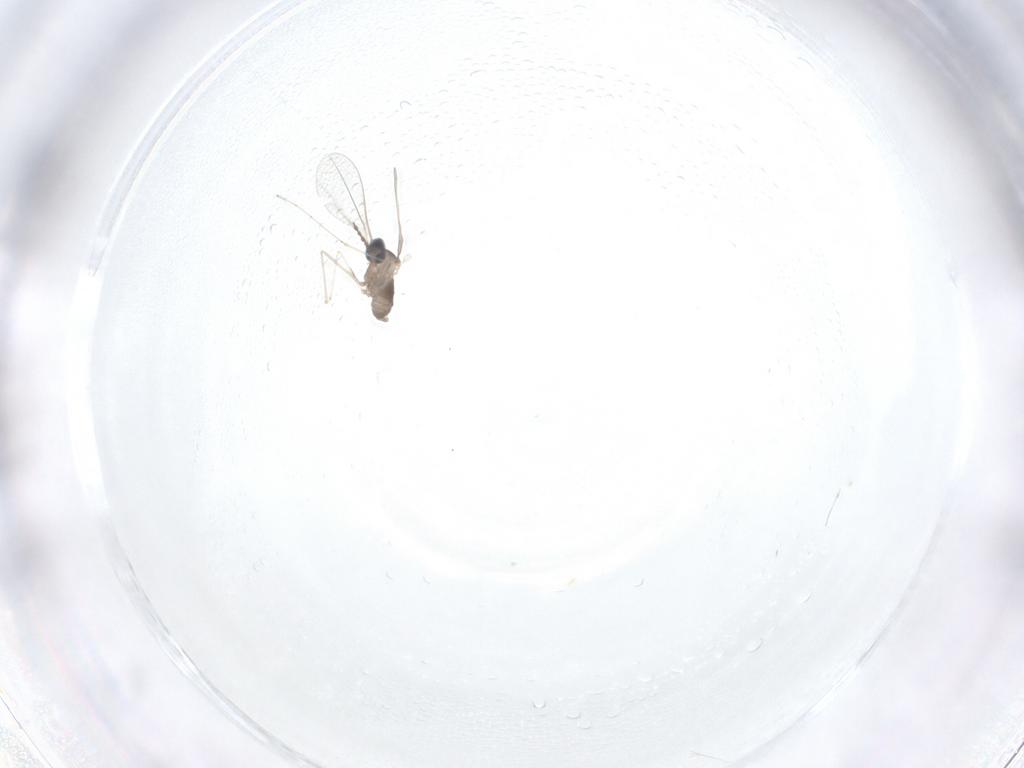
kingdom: Animalia
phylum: Arthropoda
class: Insecta
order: Diptera
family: Cecidomyiidae
